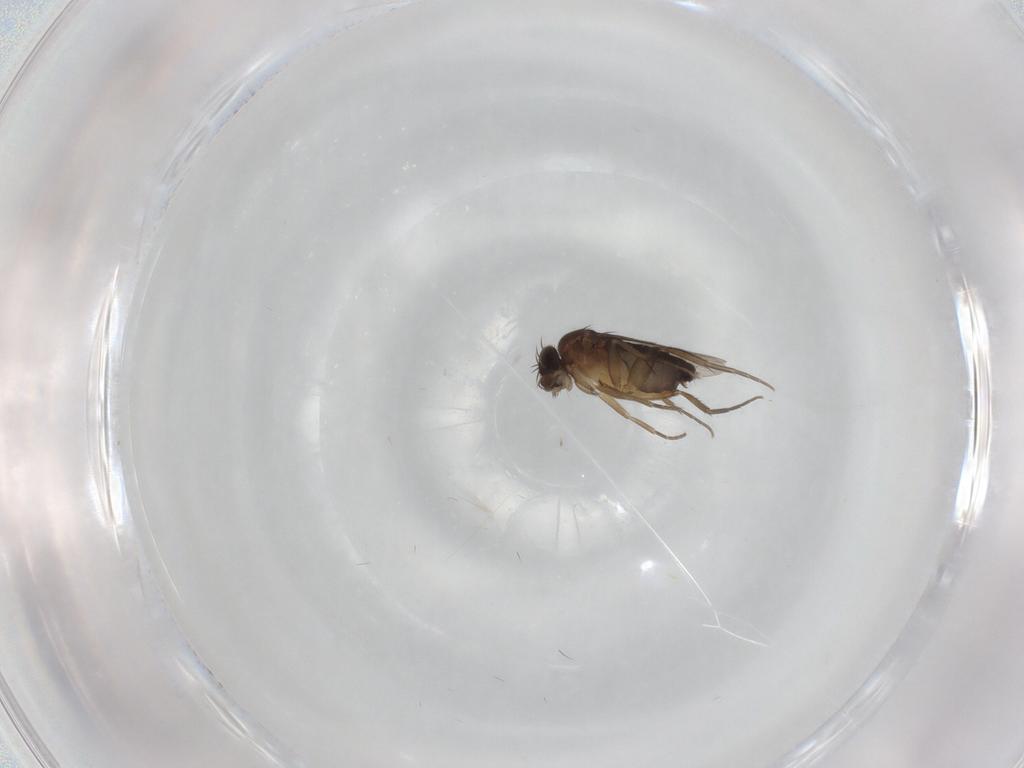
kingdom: Animalia
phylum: Arthropoda
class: Insecta
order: Diptera
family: Phoridae
